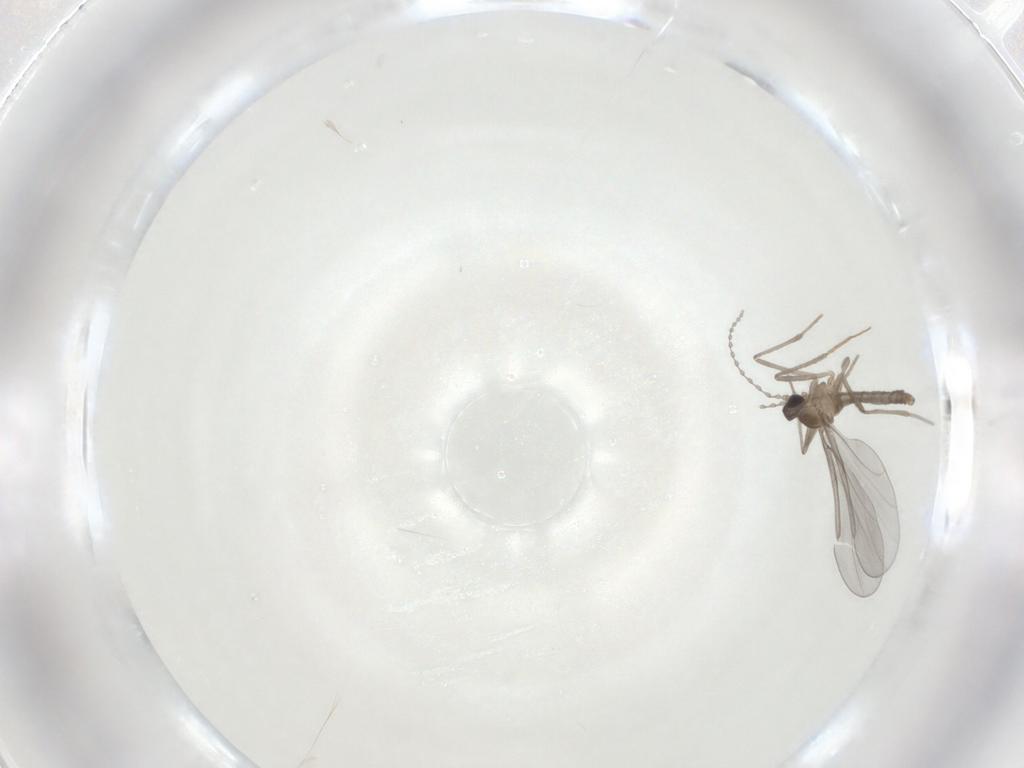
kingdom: Animalia
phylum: Arthropoda
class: Insecta
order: Diptera
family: Cecidomyiidae
